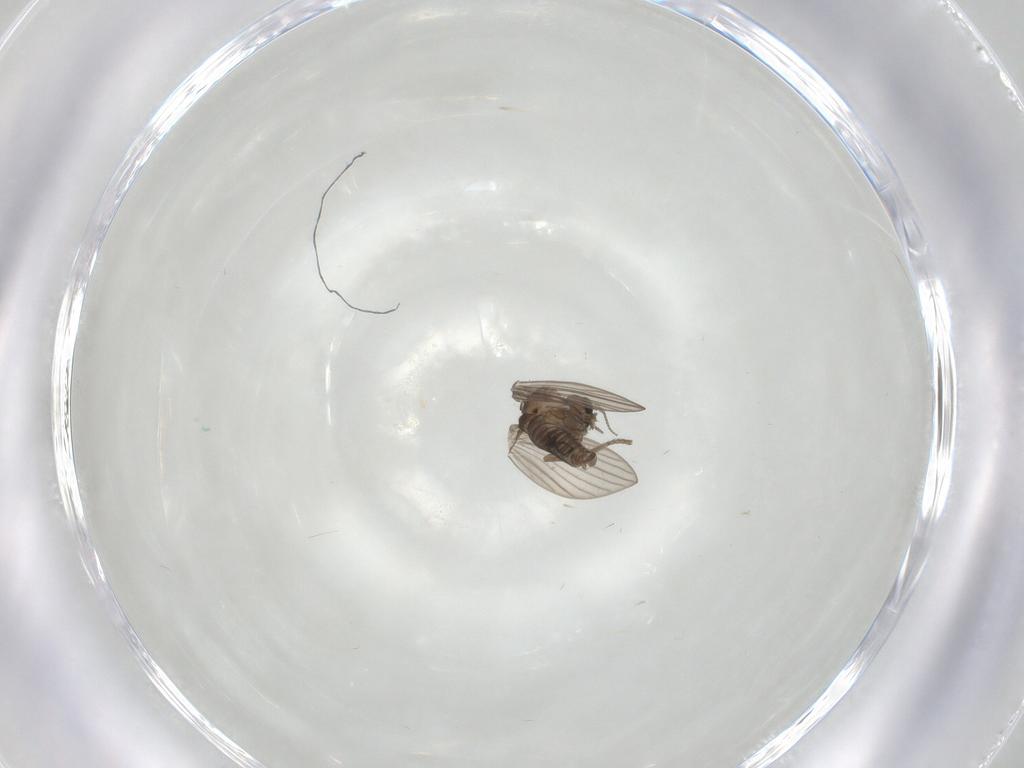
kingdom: Animalia
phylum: Arthropoda
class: Insecta
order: Diptera
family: Psychodidae
